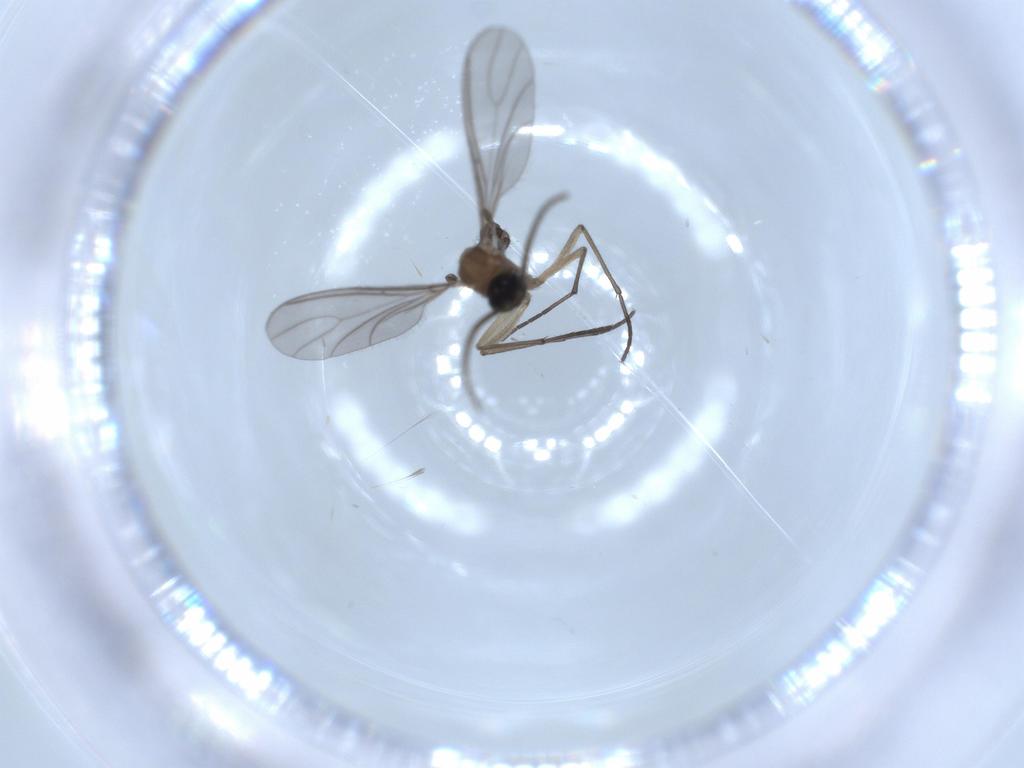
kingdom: Animalia
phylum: Arthropoda
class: Insecta
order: Diptera
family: Sciaridae
